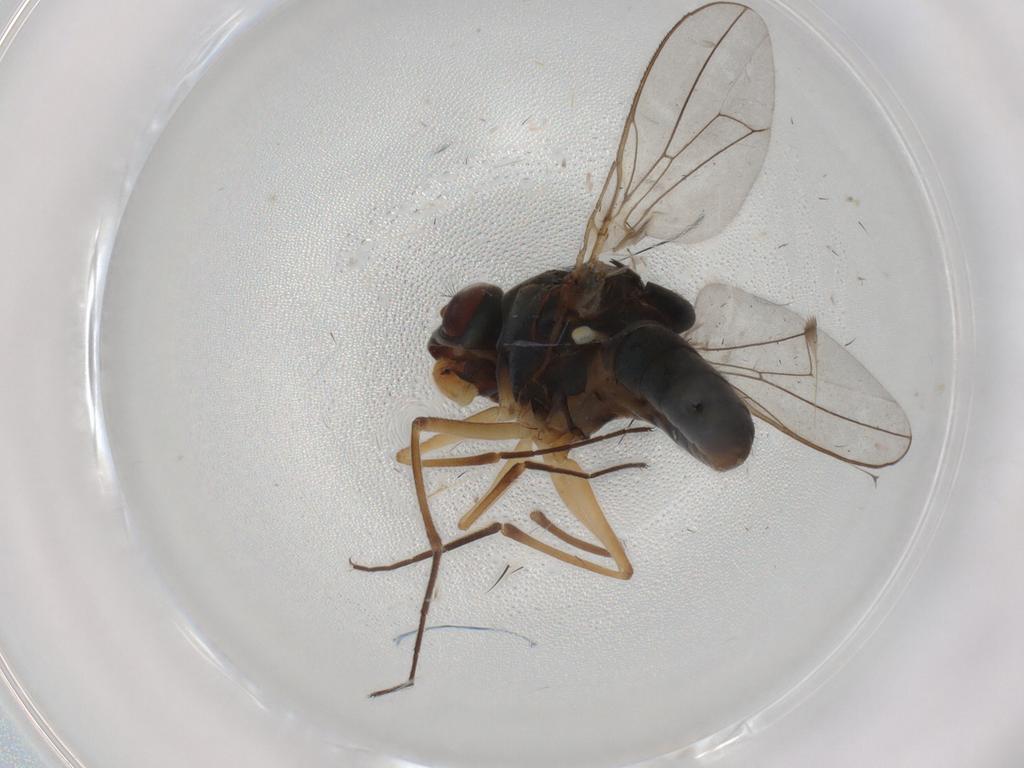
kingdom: Animalia
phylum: Arthropoda
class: Insecta
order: Diptera
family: Ephydridae
